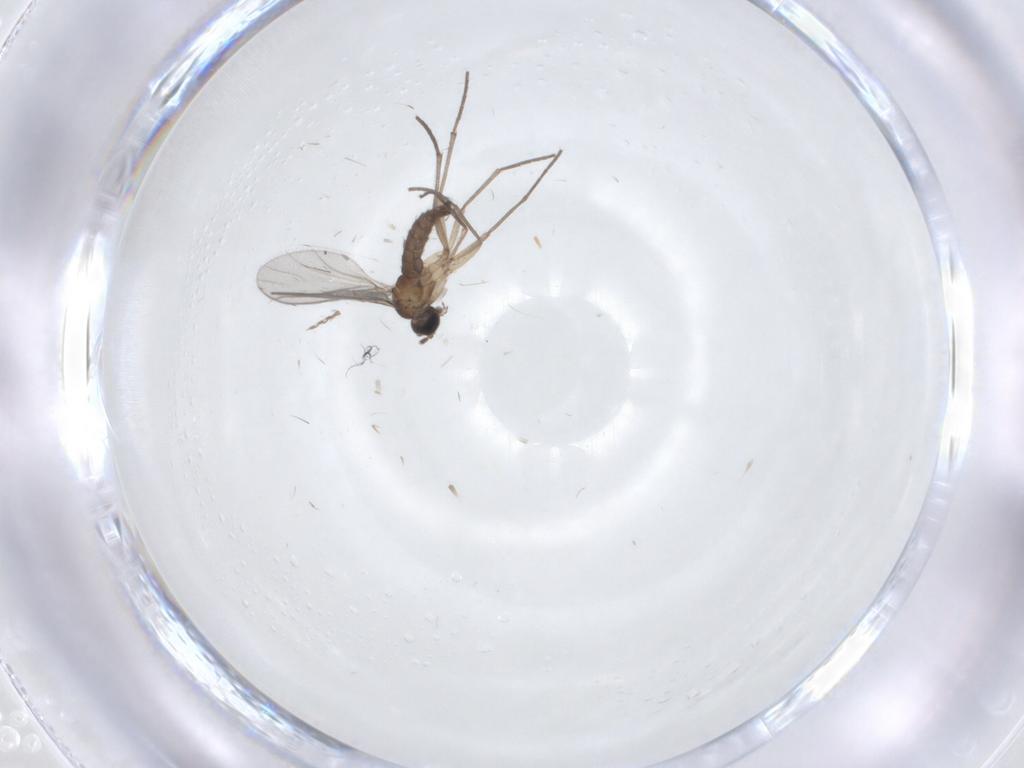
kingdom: Animalia
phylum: Arthropoda
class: Insecta
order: Diptera
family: Sciaridae
